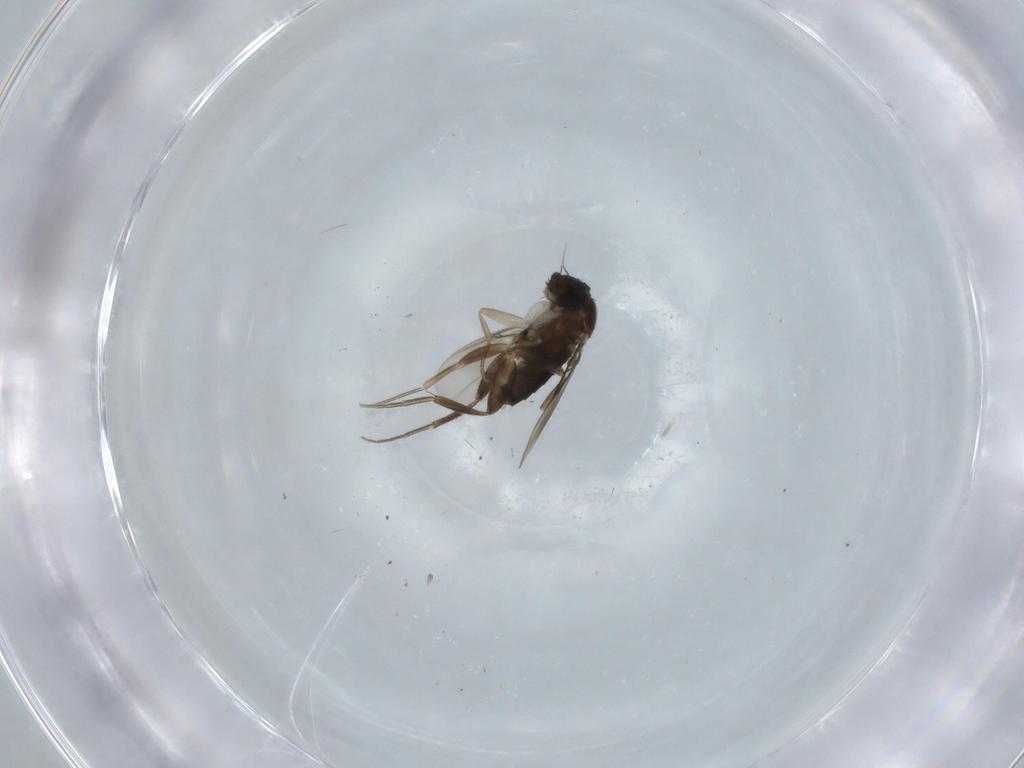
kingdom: Animalia
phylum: Arthropoda
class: Insecta
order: Diptera
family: Phoridae
